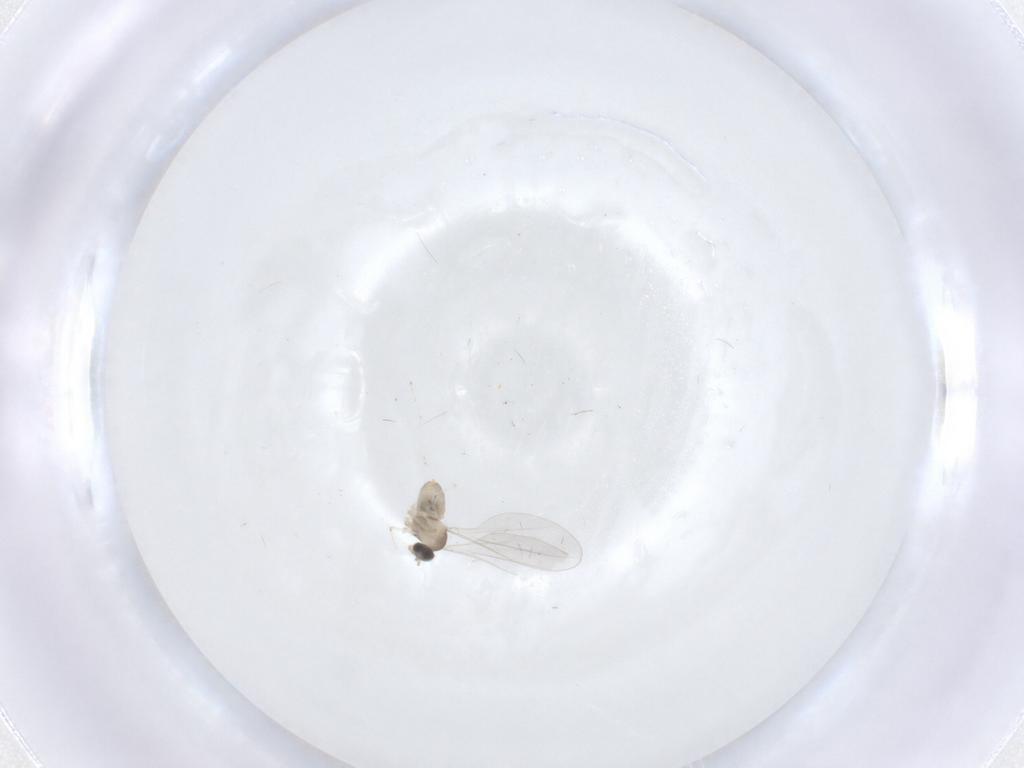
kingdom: Animalia
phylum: Arthropoda
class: Insecta
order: Diptera
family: Cecidomyiidae
